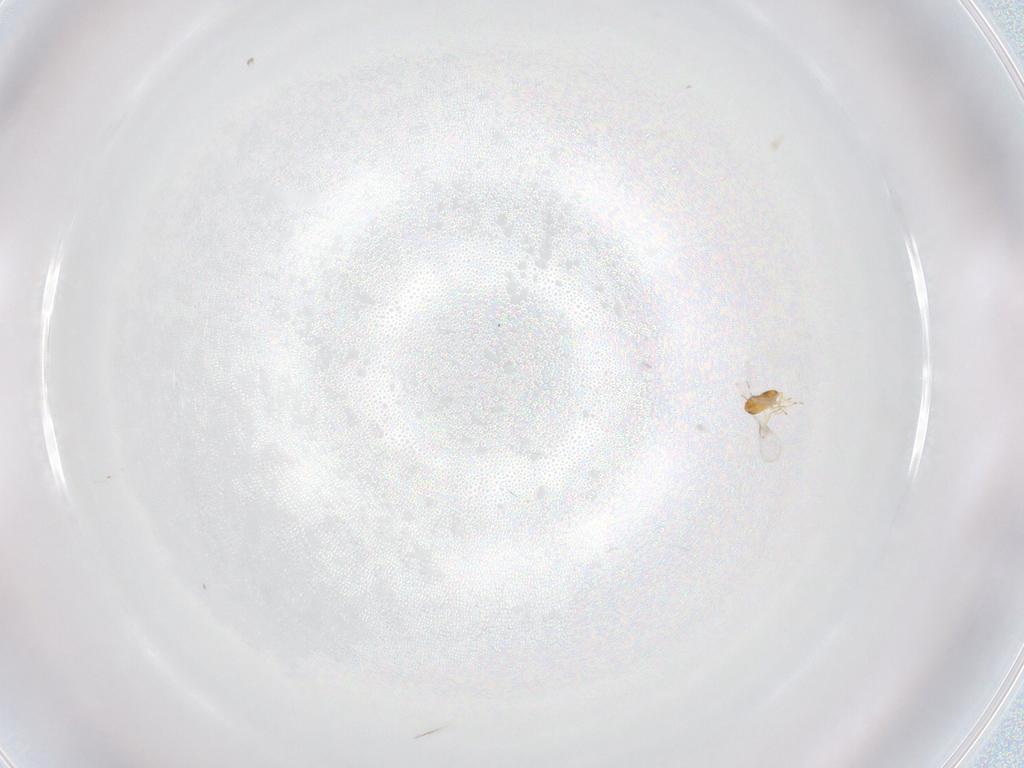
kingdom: Animalia
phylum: Arthropoda
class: Insecta
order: Hymenoptera
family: Trichogrammatidae
